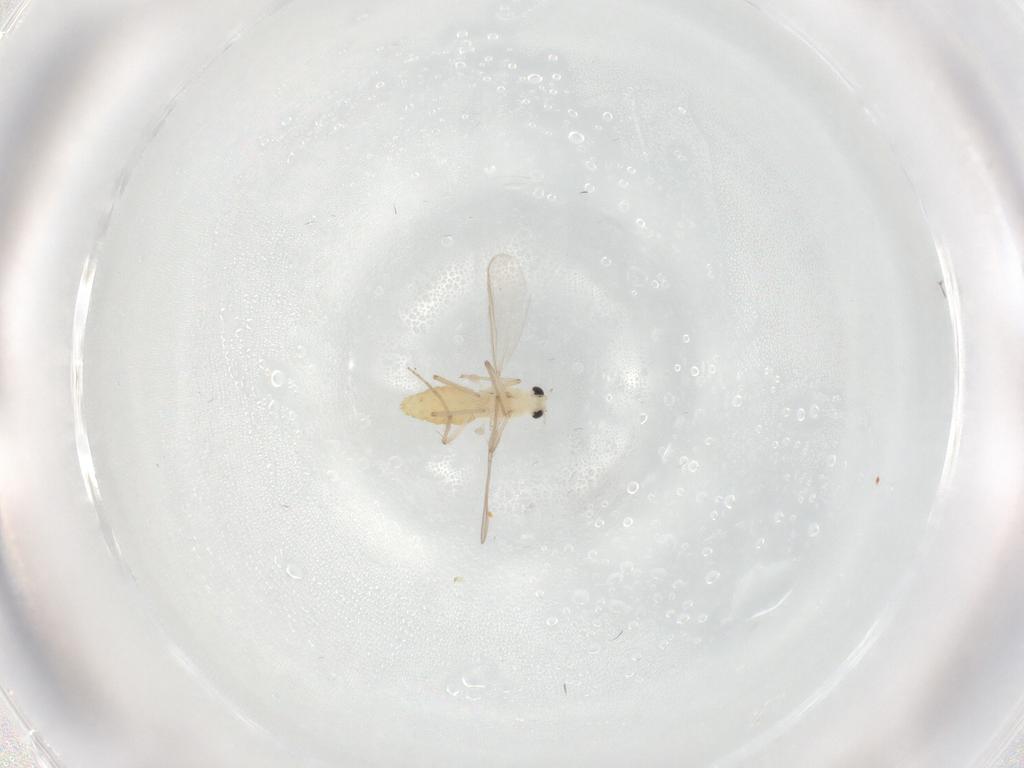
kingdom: Animalia
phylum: Arthropoda
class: Insecta
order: Diptera
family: Chironomidae
